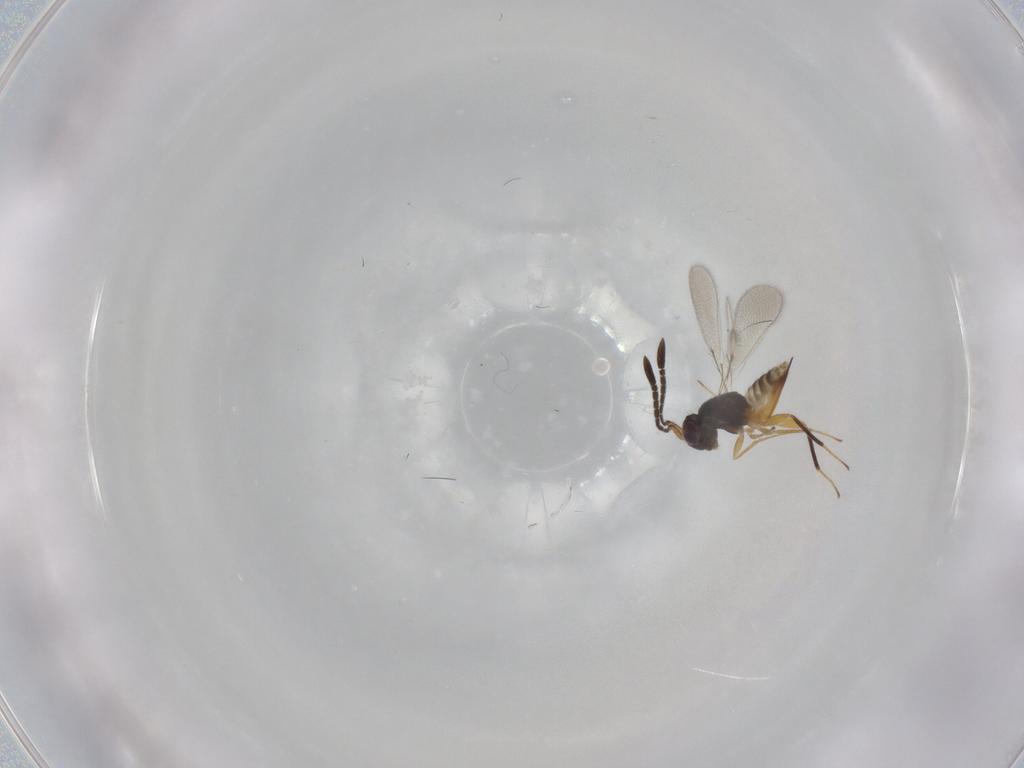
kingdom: Animalia
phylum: Arthropoda
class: Insecta
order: Hymenoptera
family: Mymaridae
